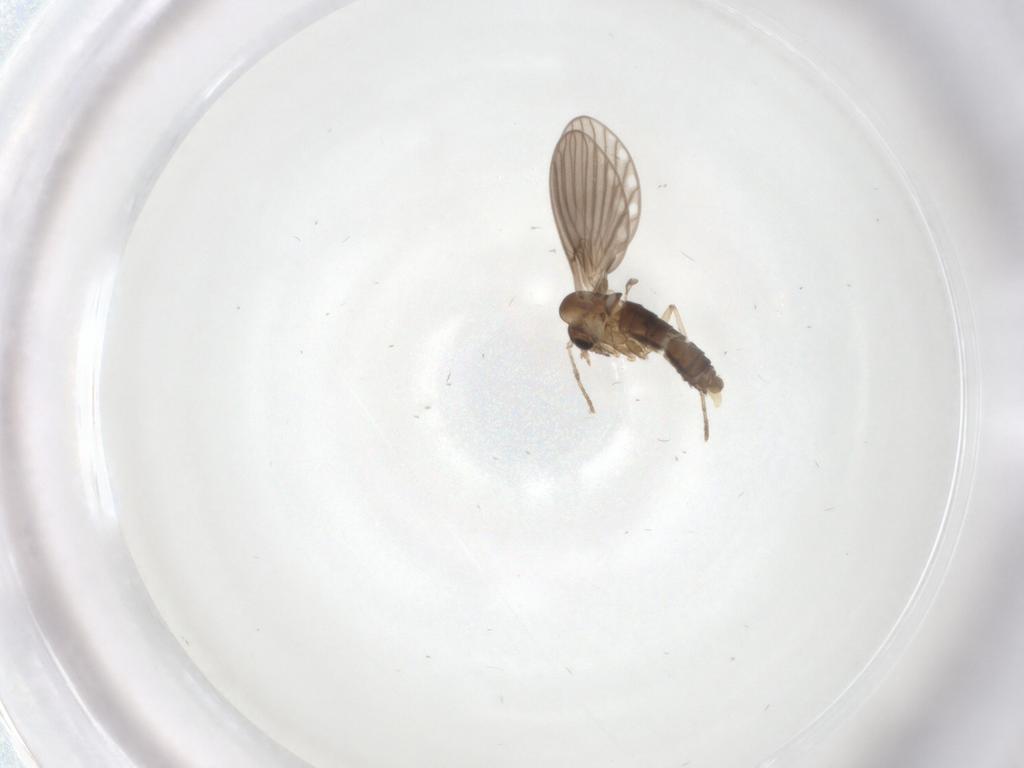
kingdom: Animalia
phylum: Arthropoda
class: Insecta
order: Diptera
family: Psychodidae
